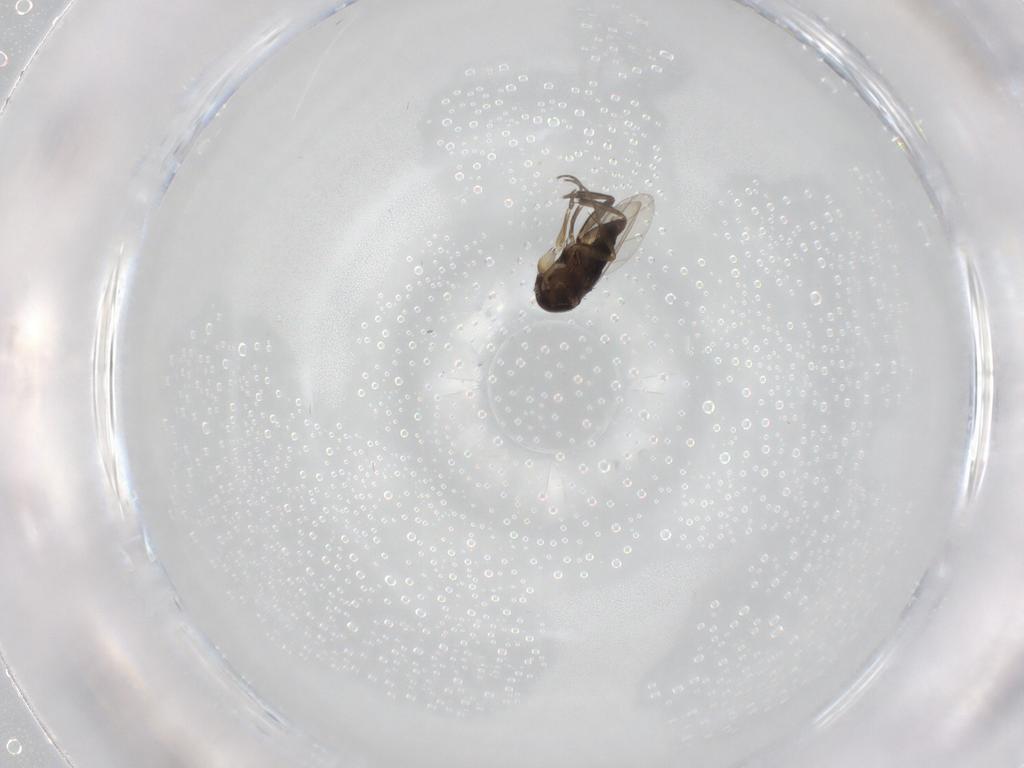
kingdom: Animalia
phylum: Arthropoda
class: Insecta
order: Diptera
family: Phoridae
